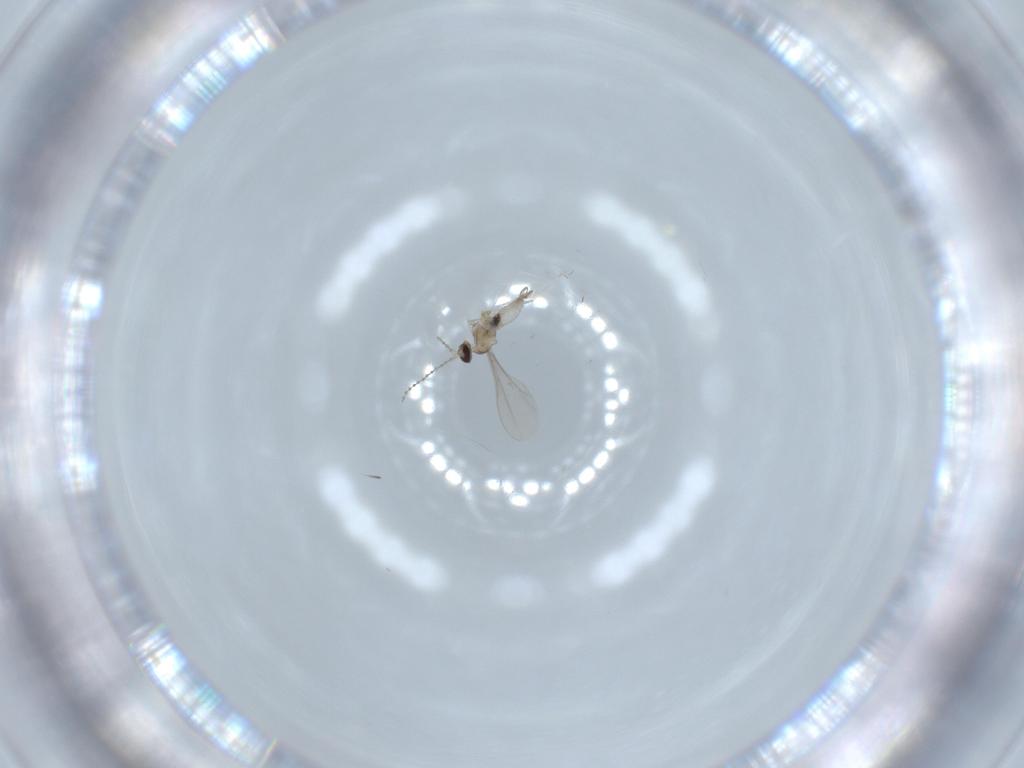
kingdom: Animalia
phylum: Arthropoda
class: Insecta
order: Diptera
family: Cecidomyiidae
